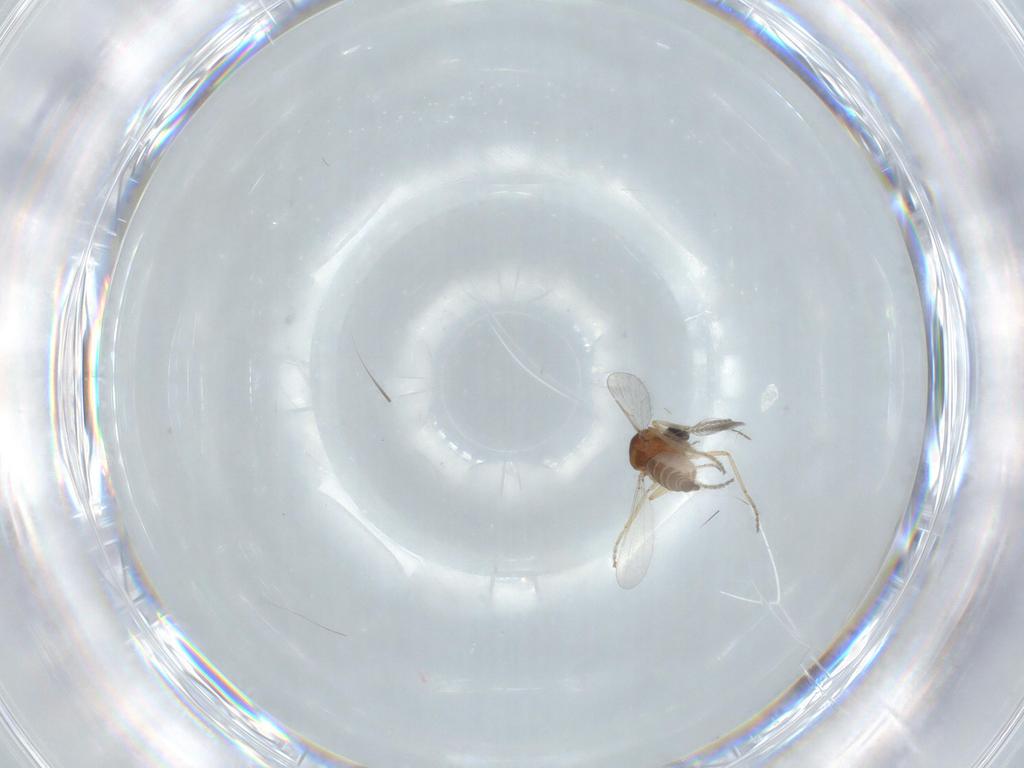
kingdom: Animalia
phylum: Arthropoda
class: Insecta
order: Diptera
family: Ceratopogonidae
